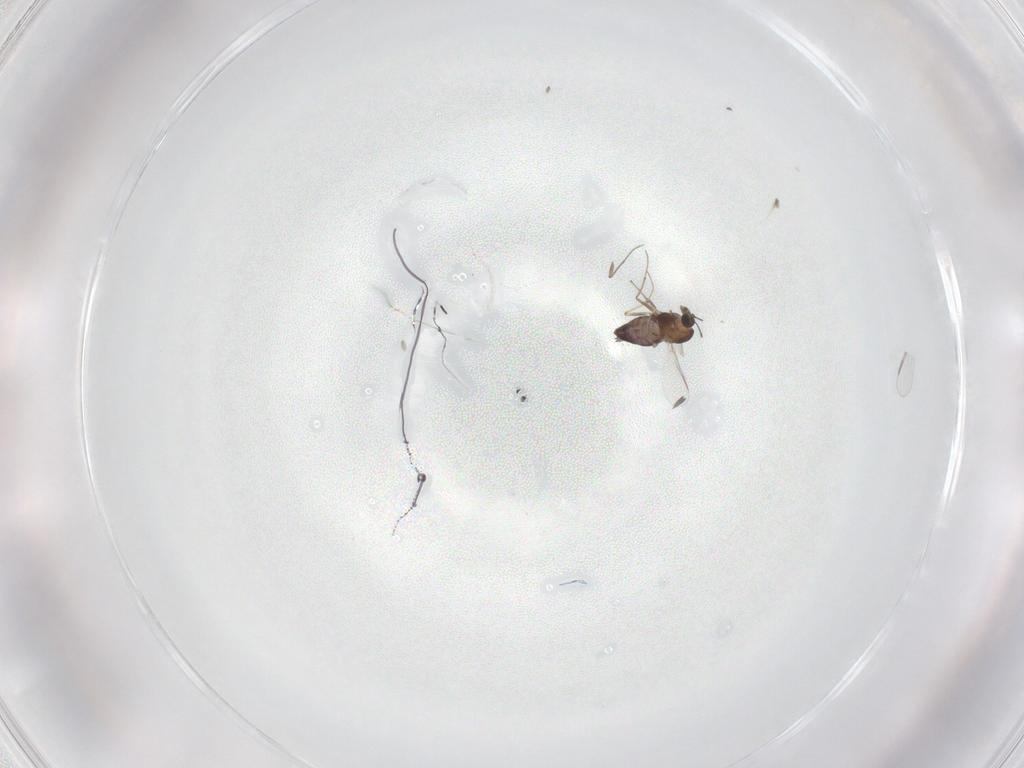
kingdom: Animalia
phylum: Arthropoda
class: Insecta
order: Diptera
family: Chironomidae
